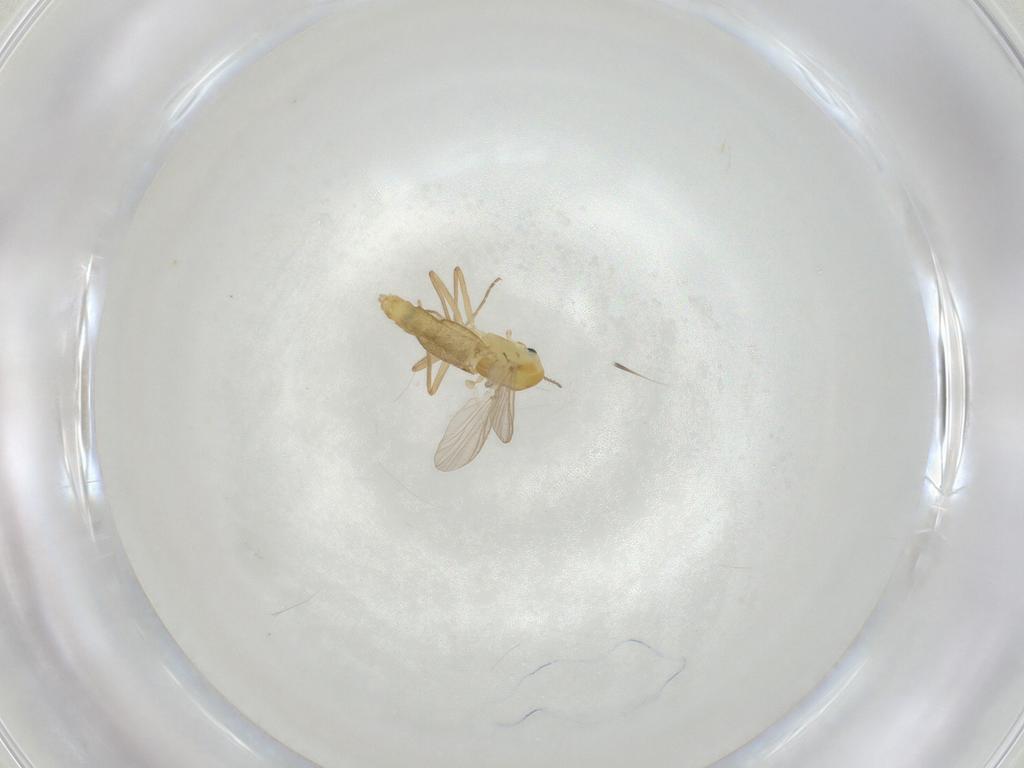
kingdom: Animalia
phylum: Arthropoda
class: Insecta
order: Diptera
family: Chironomidae
